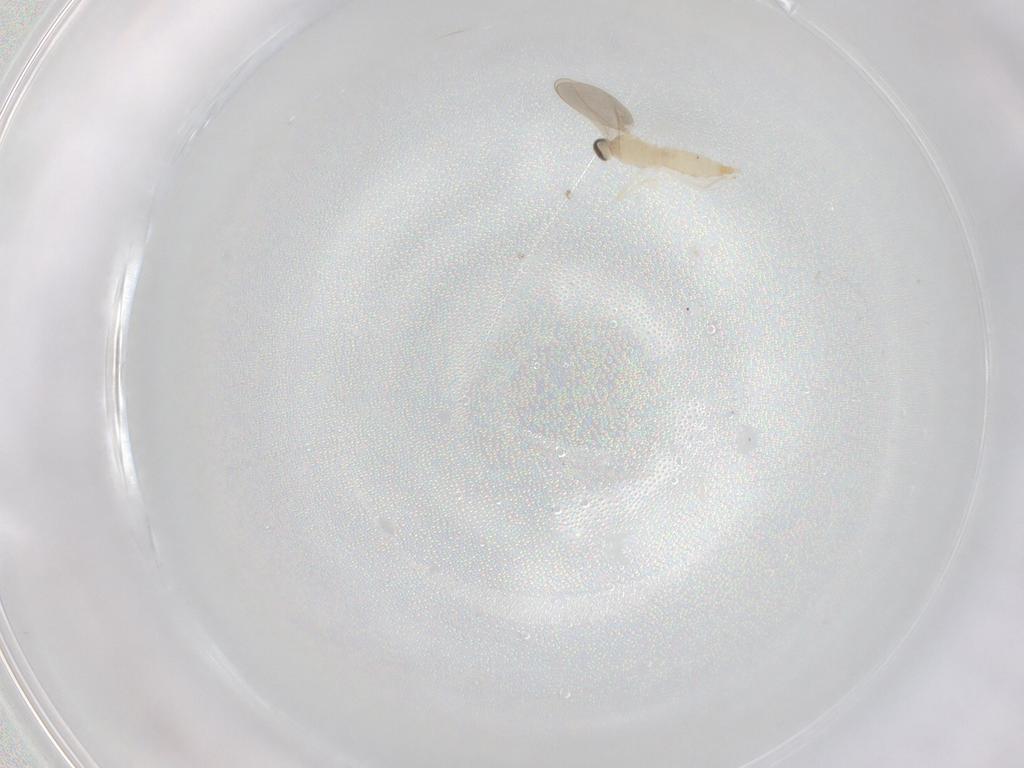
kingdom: Animalia
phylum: Arthropoda
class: Insecta
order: Diptera
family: Cecidomyiidae
